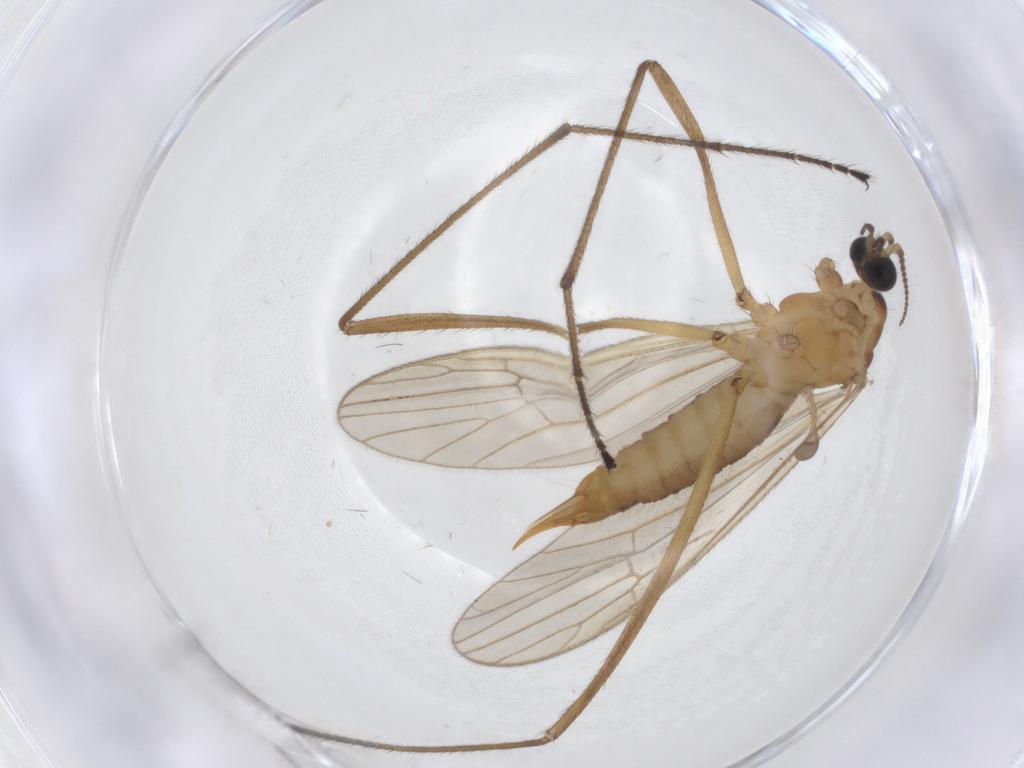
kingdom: Animalia
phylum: Arthropoda
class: Insecta
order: Diptera
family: Limoniidae
